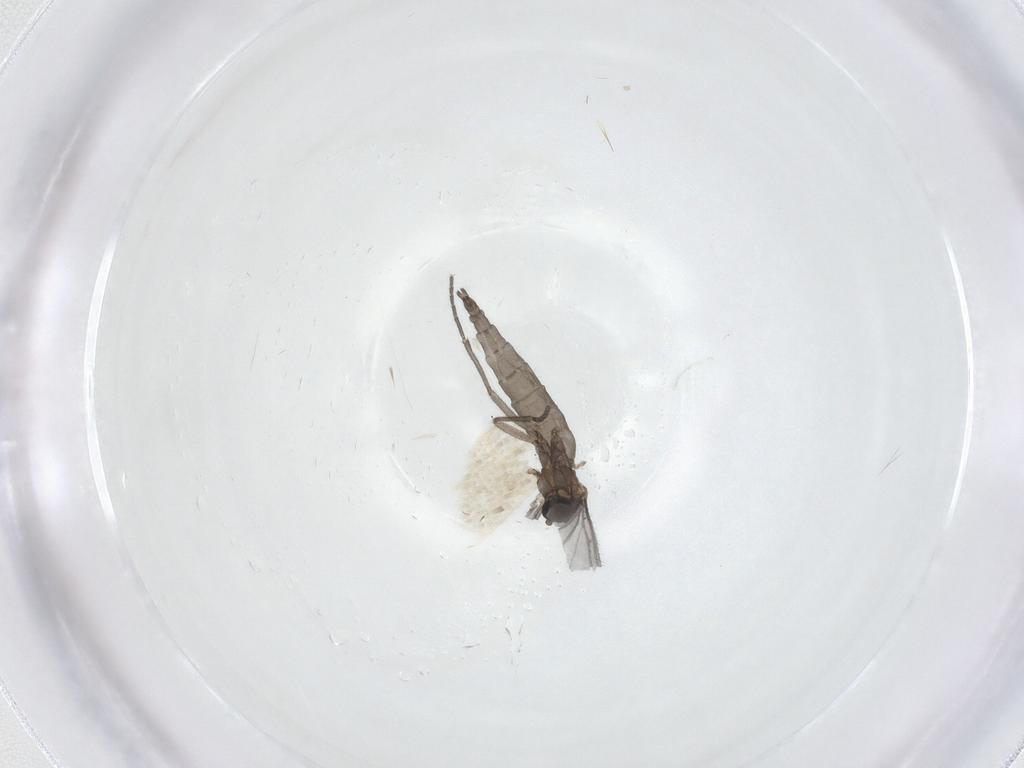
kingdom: Animalia
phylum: Arthropoda
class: Insecta
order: Diptera
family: Sciaridae
